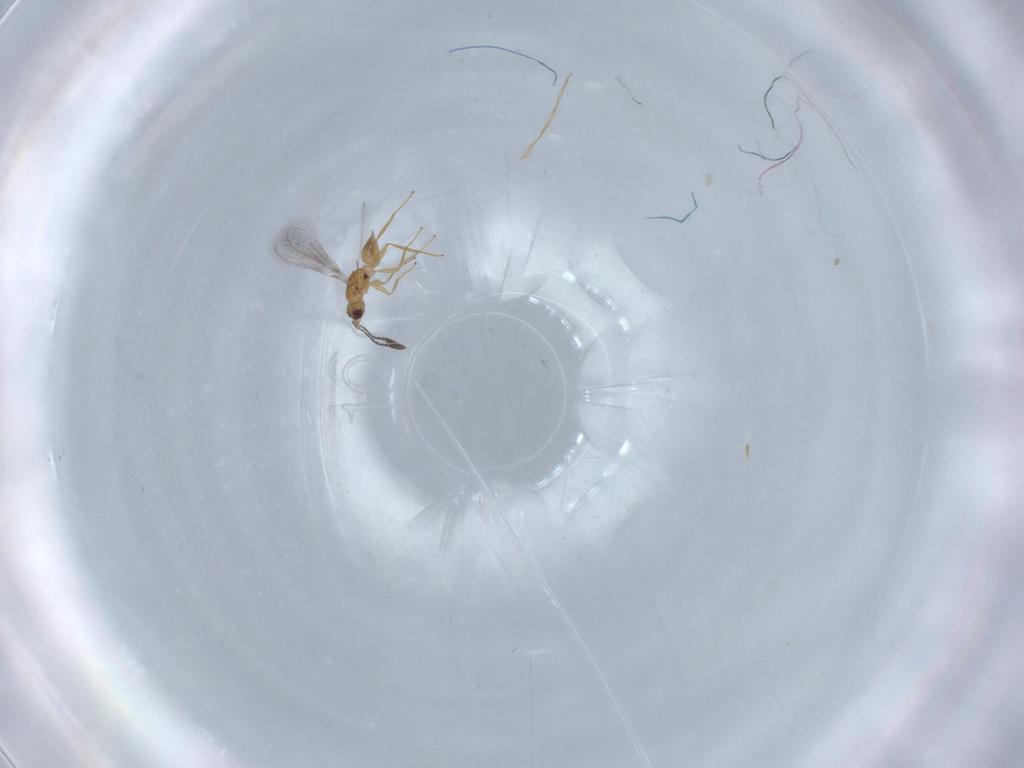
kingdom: Animalia
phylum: Arthropoda
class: Insecta
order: Hymenoptera
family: Mymaridae
